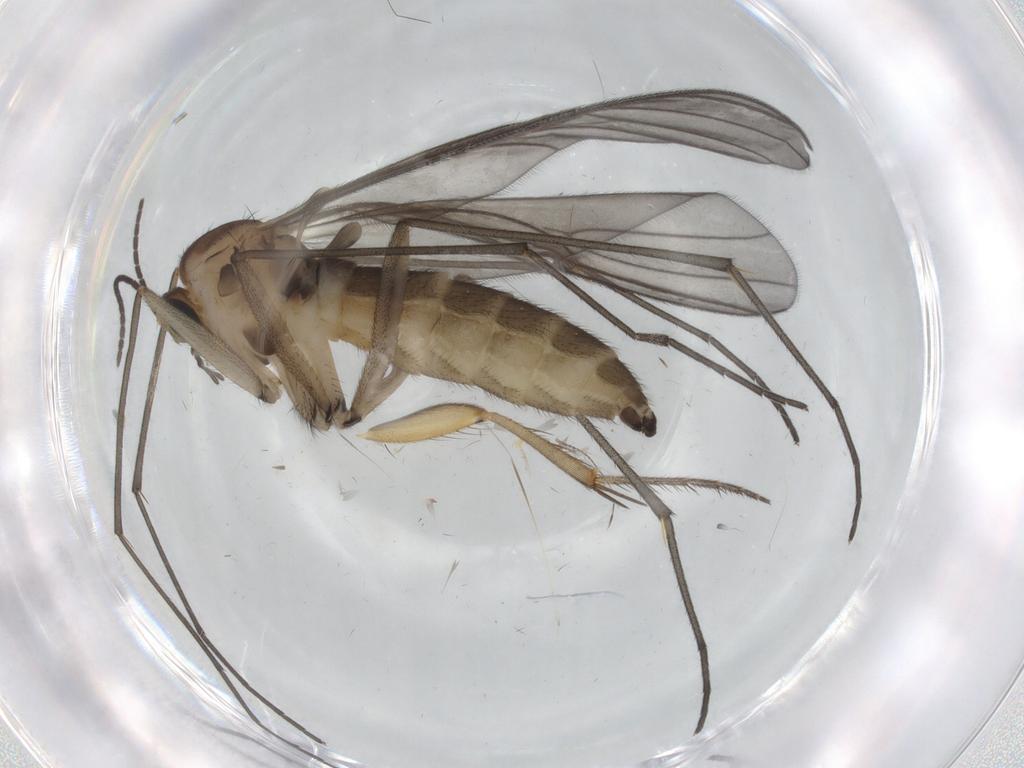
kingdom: Animalia
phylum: Arthropoda
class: Insecta
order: Diptera
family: Sciaridae
